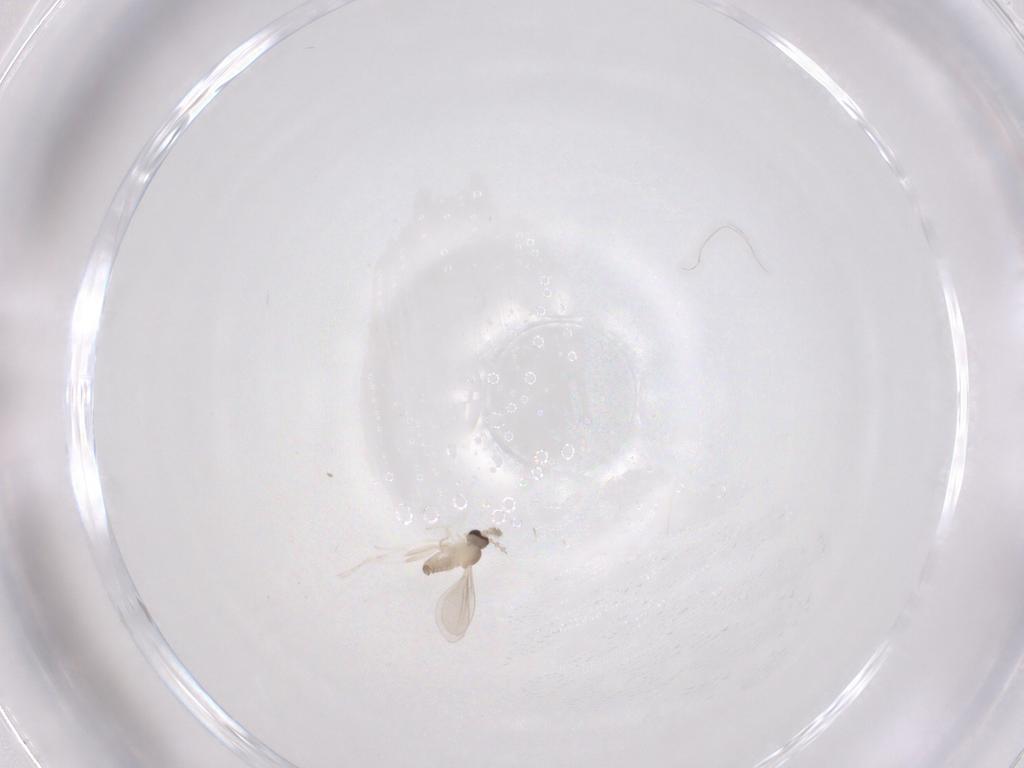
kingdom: Animalia
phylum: Arthropoda
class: Insecta
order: Diptera
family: Cecidomyiidae
